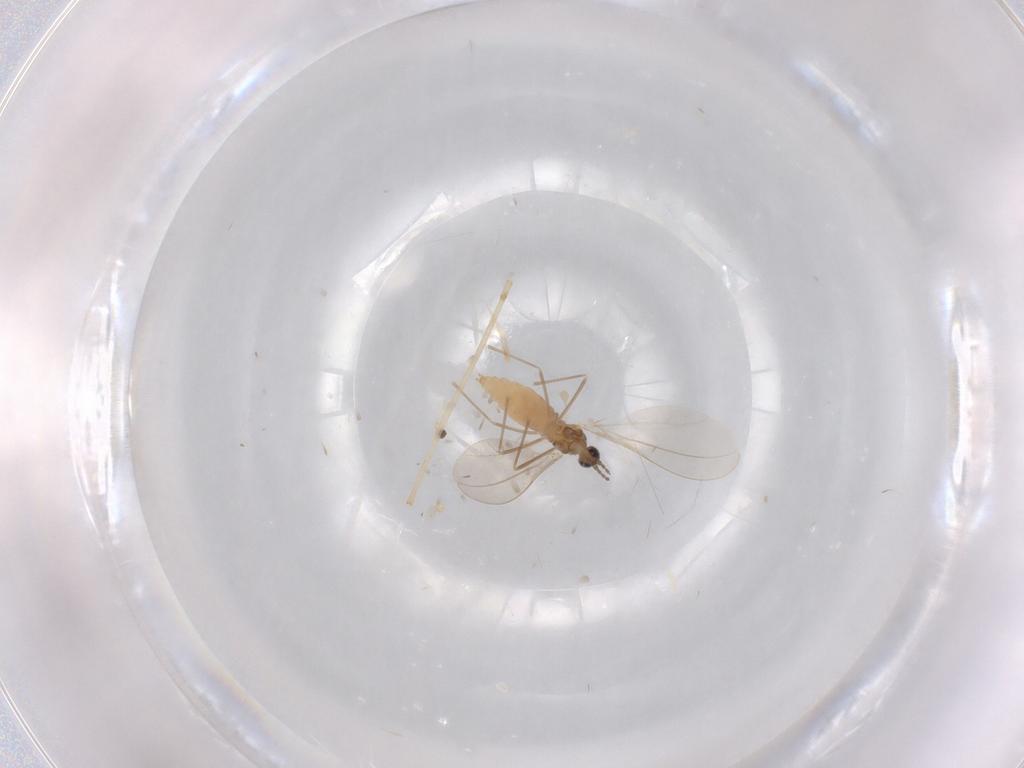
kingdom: Animalia
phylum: Arthropoda
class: Insecta
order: Diptera
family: Cecidomyiidae
